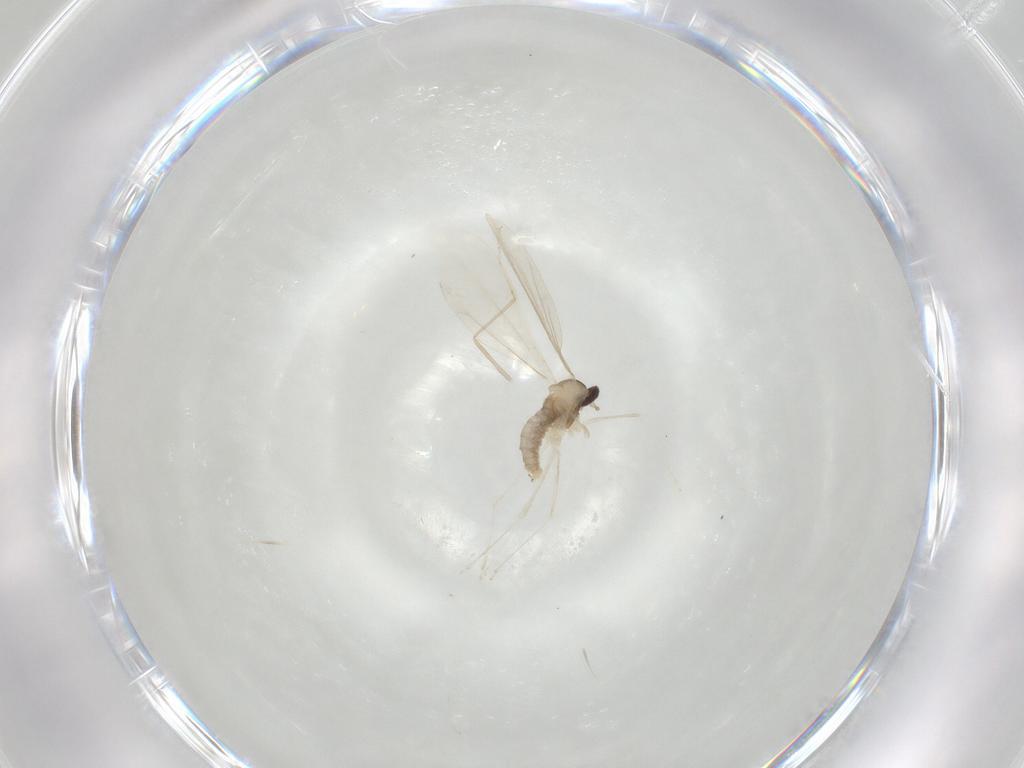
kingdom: Animalia
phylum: Arthropoda
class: Insecta
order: Diptera
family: Cecidomyiidae
